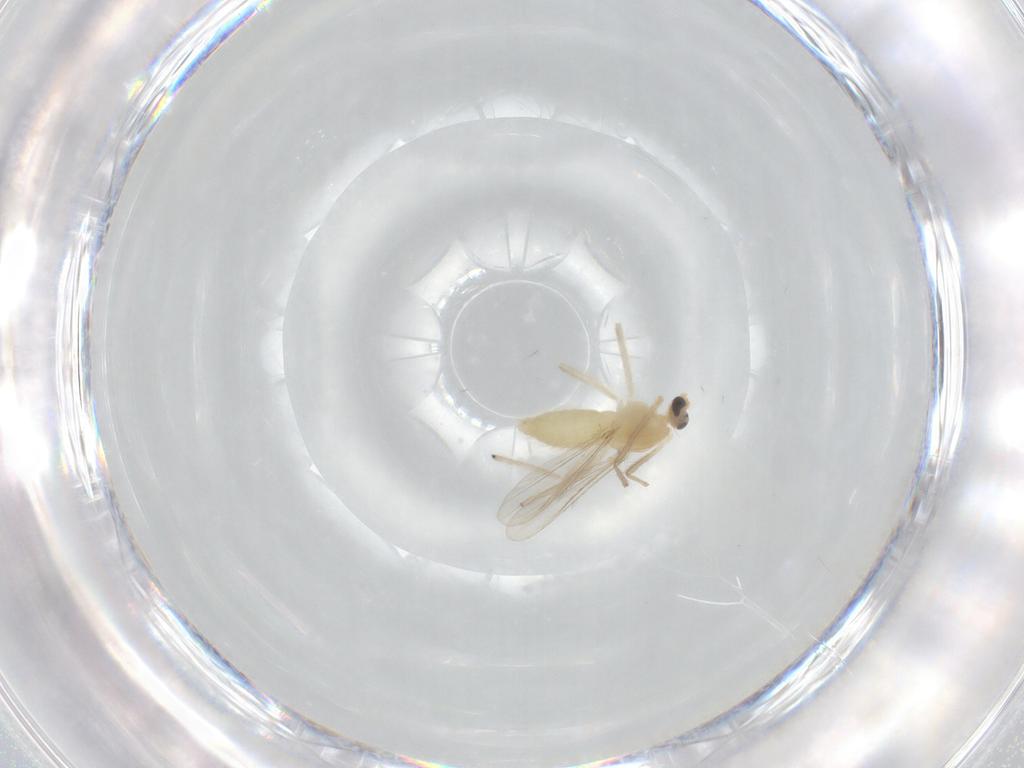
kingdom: Animalia
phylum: Arthropoda
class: Insecta
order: Diptera
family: Chironomidae
